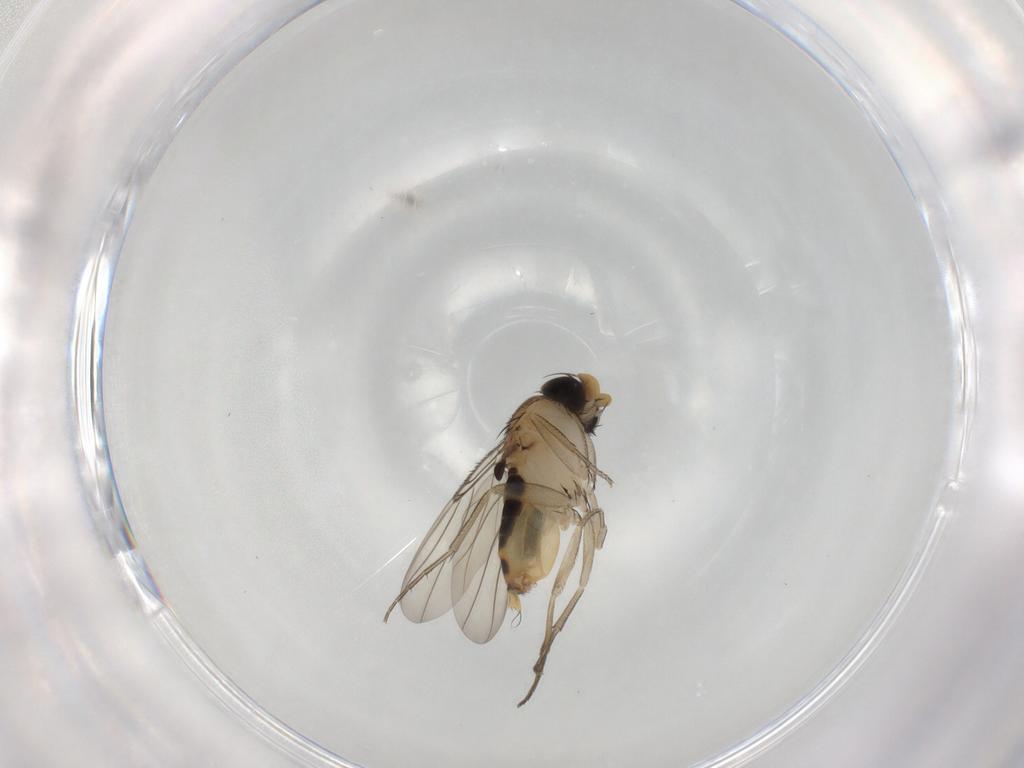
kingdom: Animalia
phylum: Arthropoda
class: Insecta
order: Diptera
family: Phoridae
